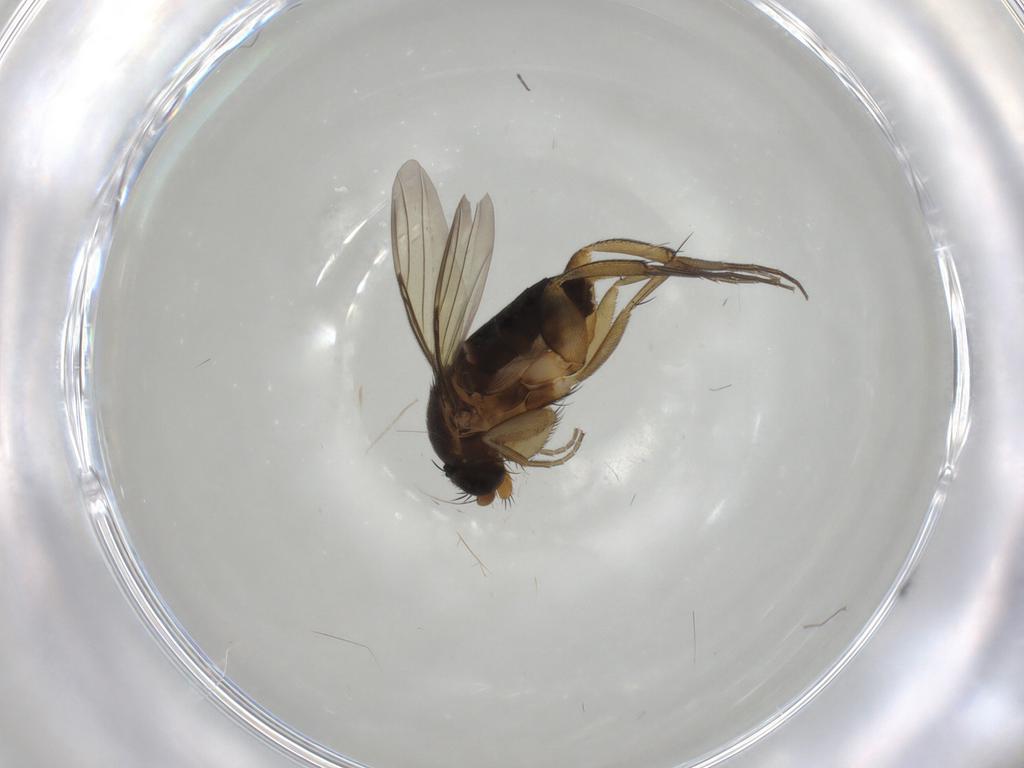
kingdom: Animalia
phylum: Arthropoda
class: Insecta
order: Diptera
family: Phoridae
